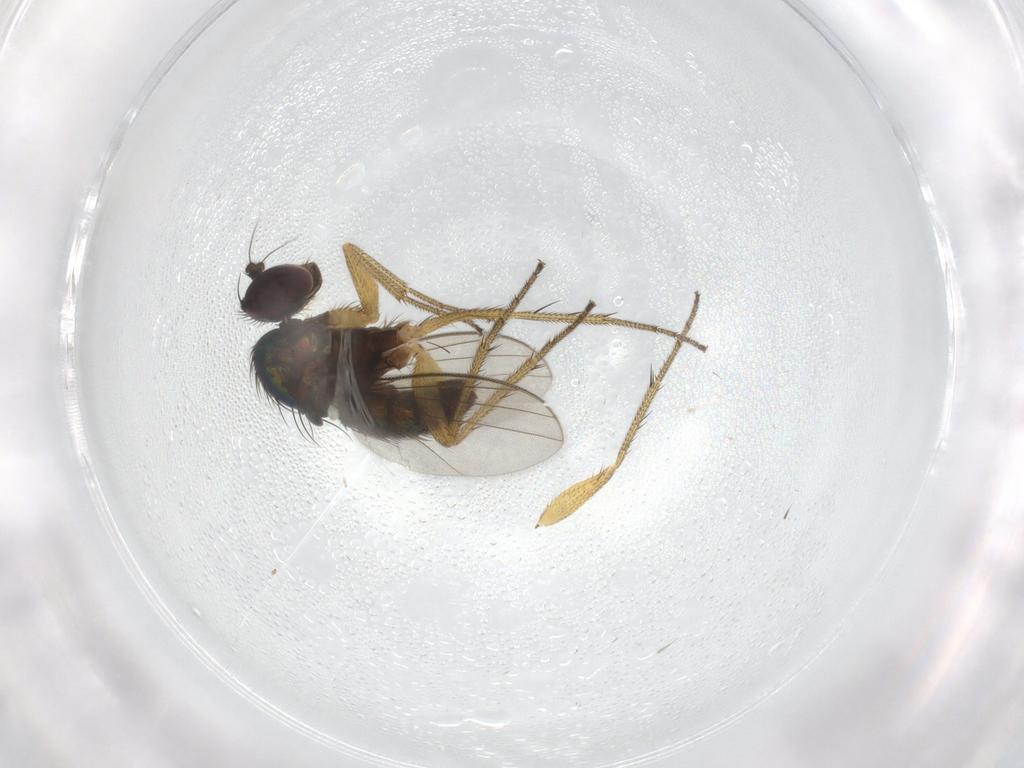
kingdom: Animalia
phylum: Arthropoda
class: Insecta
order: Diptera
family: Dolichopodidae
